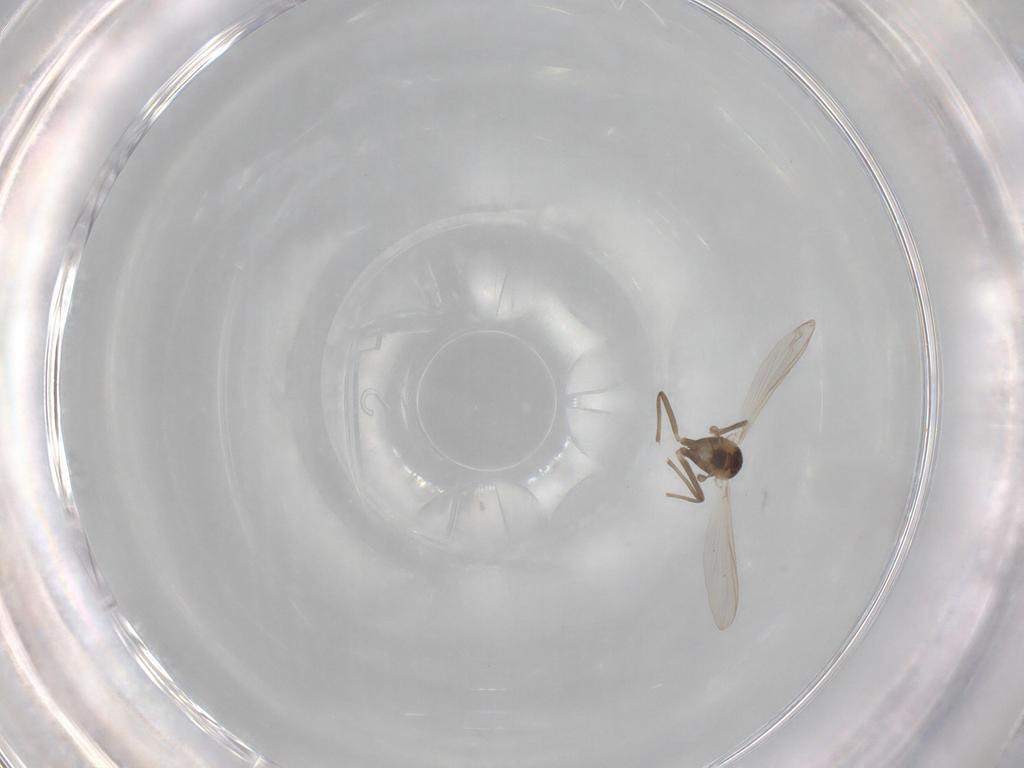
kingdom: Animalia
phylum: Arthropoda
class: Insecta
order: Diptera
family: Chironomidae
